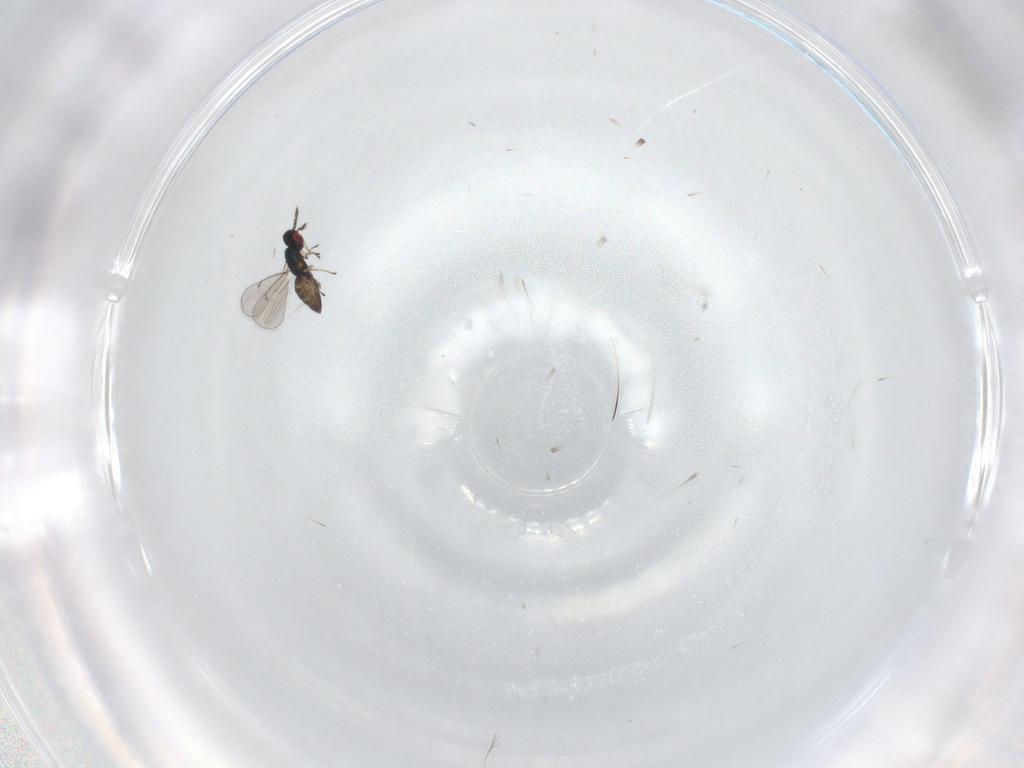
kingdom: Animalia
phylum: Arthropoda
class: Insecta
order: Hymenoptera
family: Eulophidae
